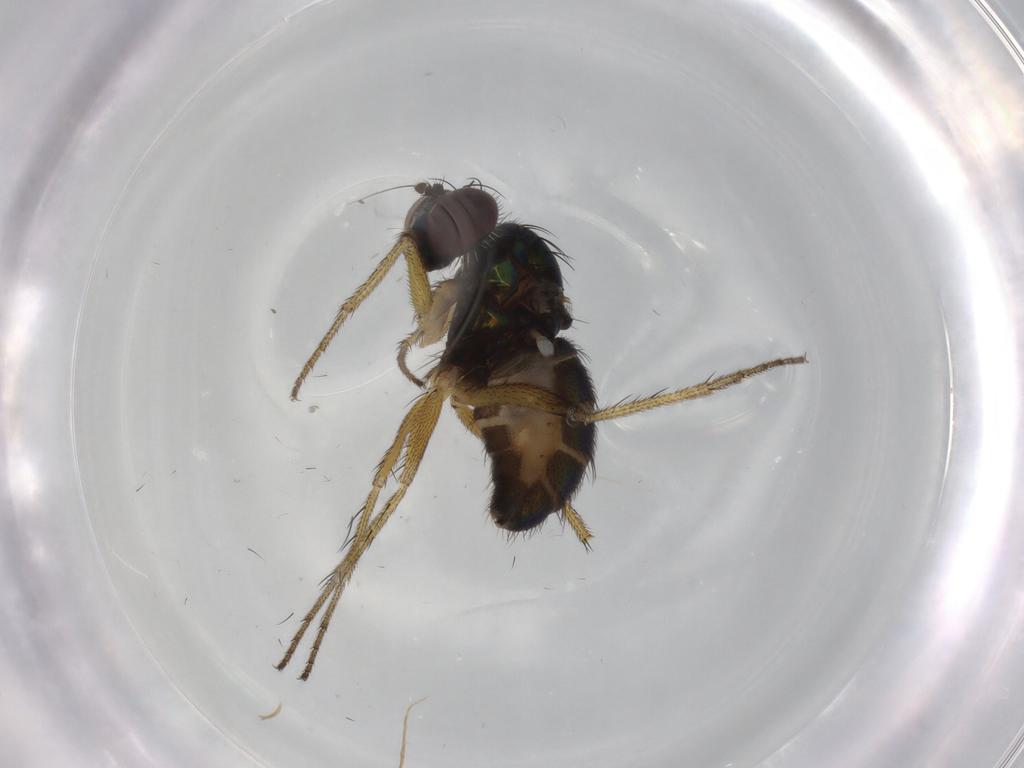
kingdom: Animalia
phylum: Arthropoda
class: Insecta
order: Diptera
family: Dolichopodidae
